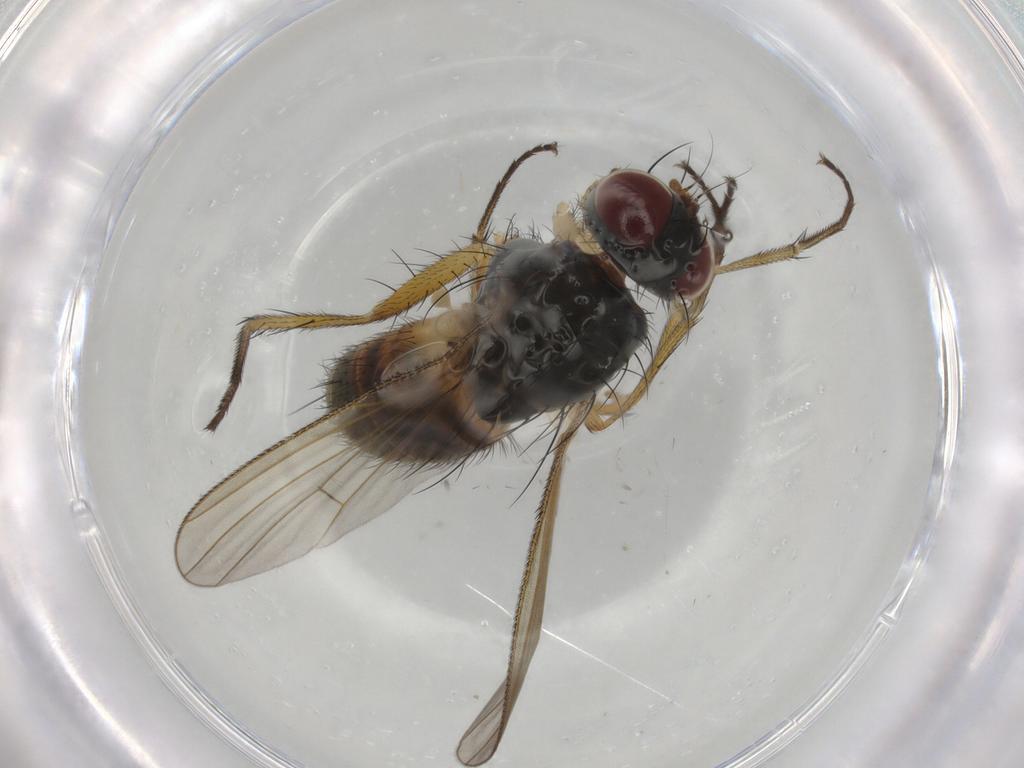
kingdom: Animalia
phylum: Arthropoda
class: Insecta
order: Diptera
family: Muscidae
